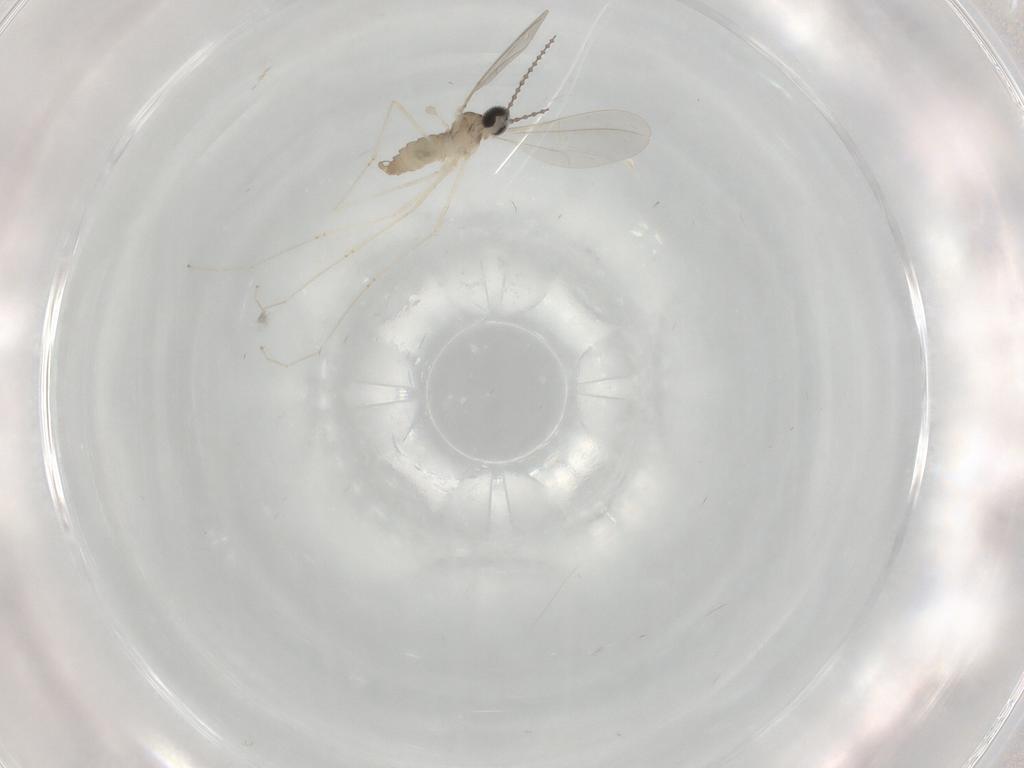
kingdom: Animalia
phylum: Arthropoda
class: Insecta
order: Diptera
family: Cecidomyiidae
